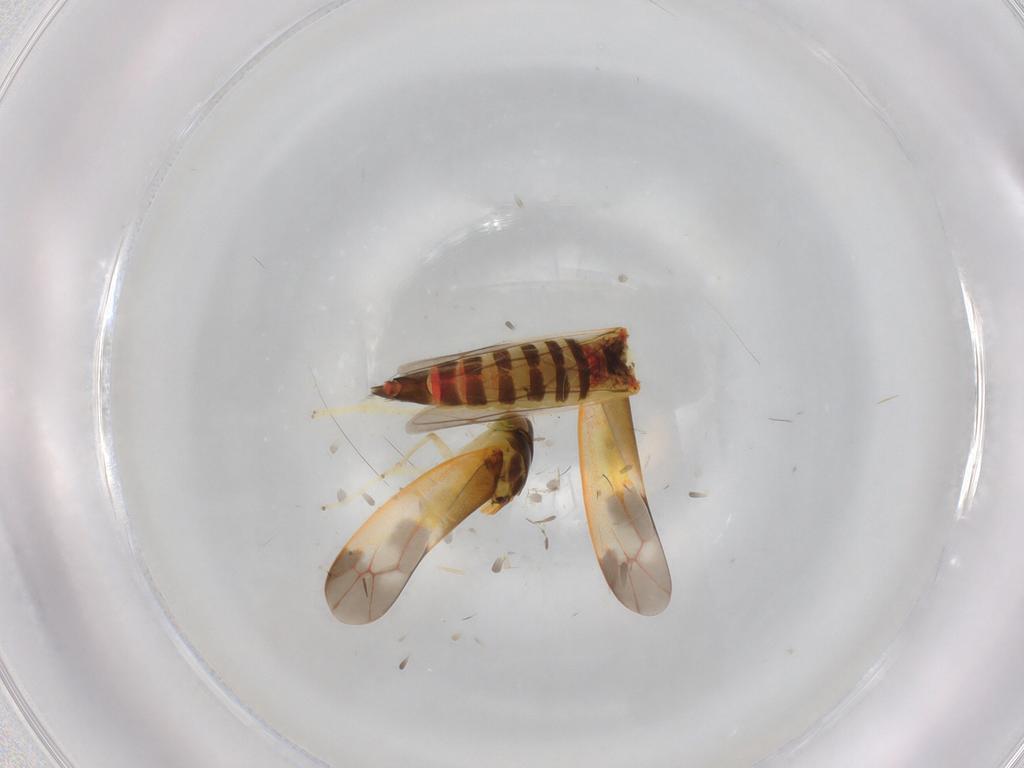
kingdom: Animalia
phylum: Arthropoda
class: Insecta
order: Hemiptera
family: Cicadellidae
